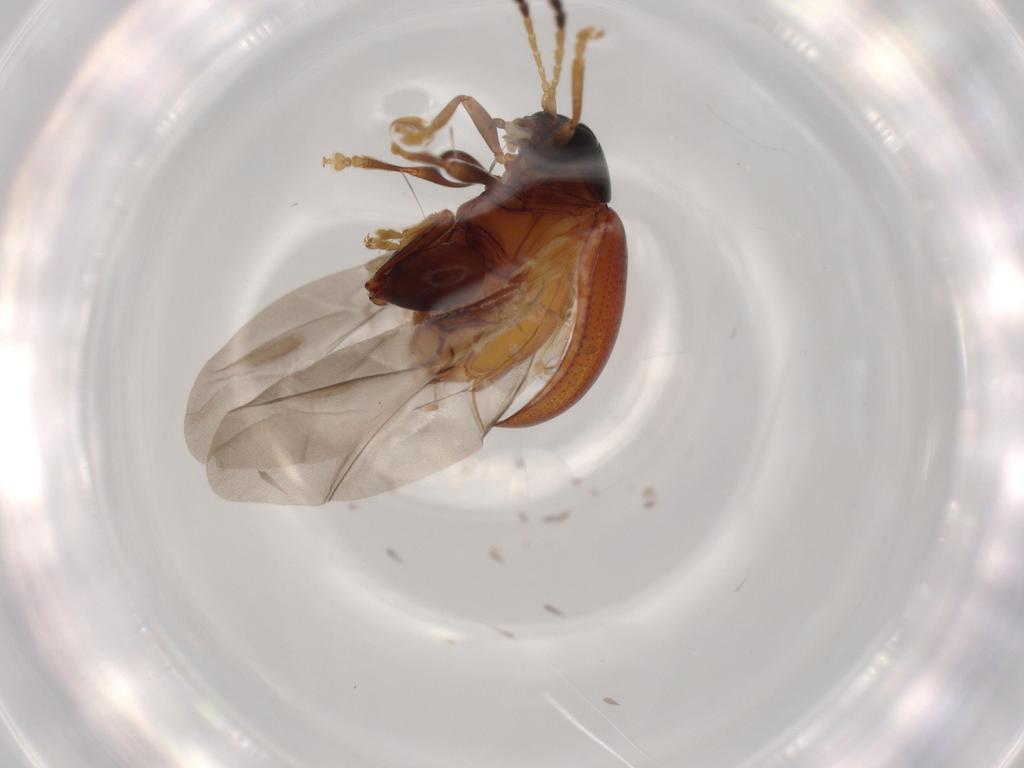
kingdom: Animalia
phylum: Arthropoda
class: Insecta
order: Coleoptera
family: Chrysomelidae
